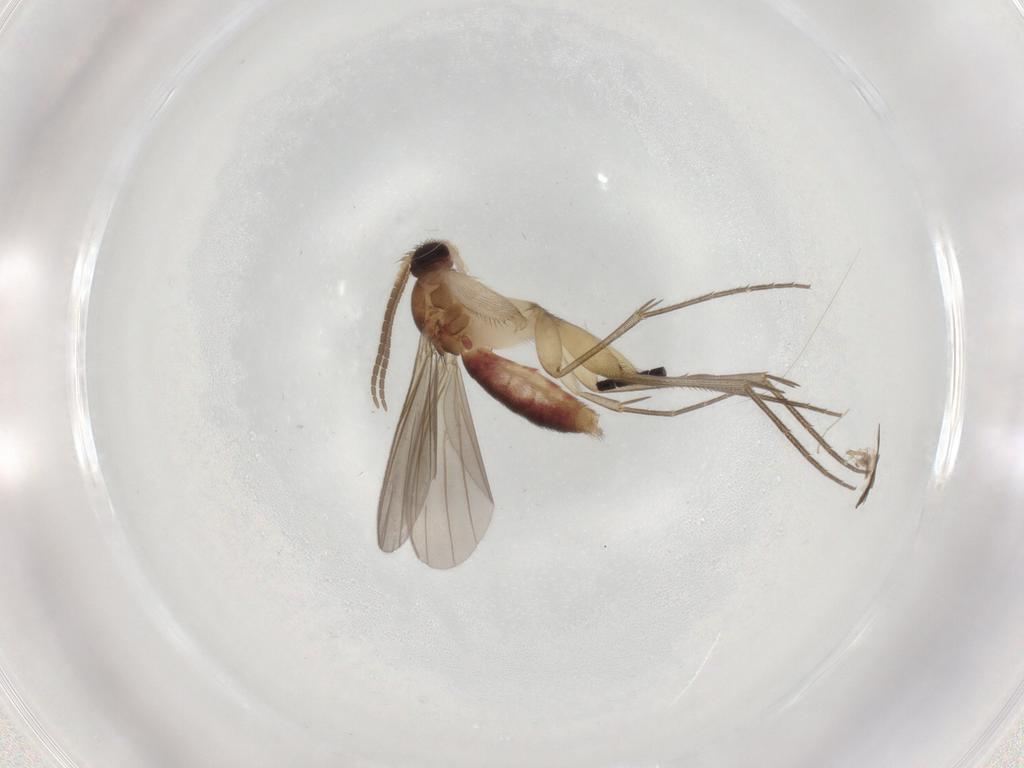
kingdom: Animalia
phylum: Arthropoda
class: Insecta
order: Diptera
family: Mycetophilidae
